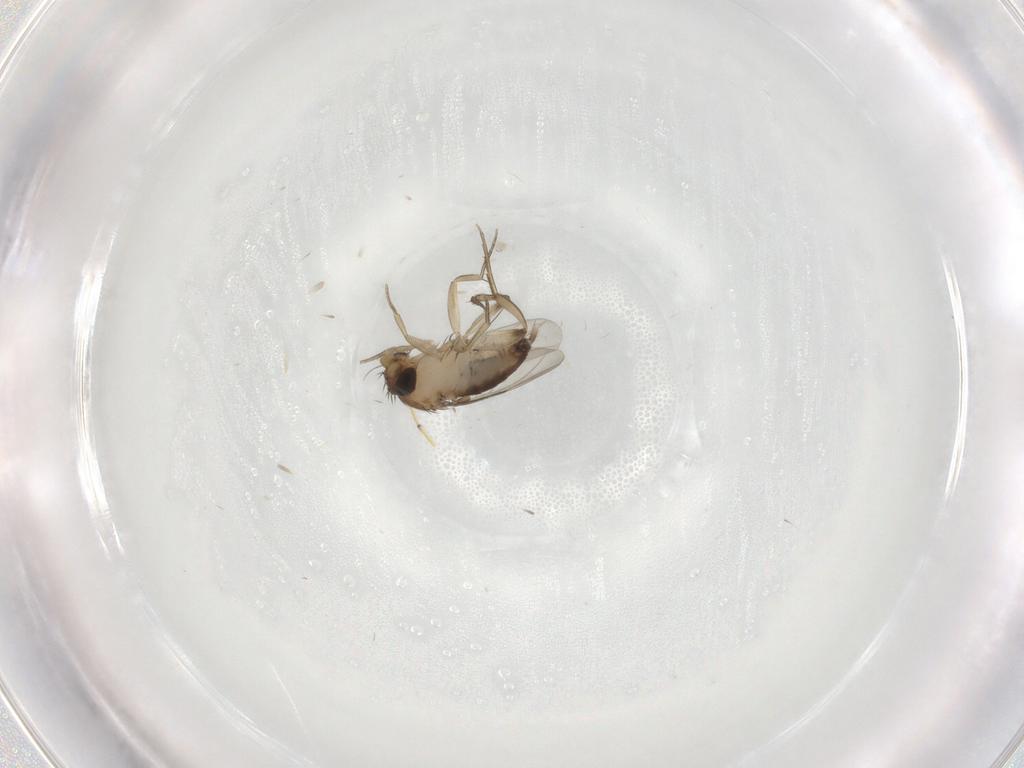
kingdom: Animalia
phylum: Arthropoda
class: Insecta
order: Diptera
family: Phoridae
